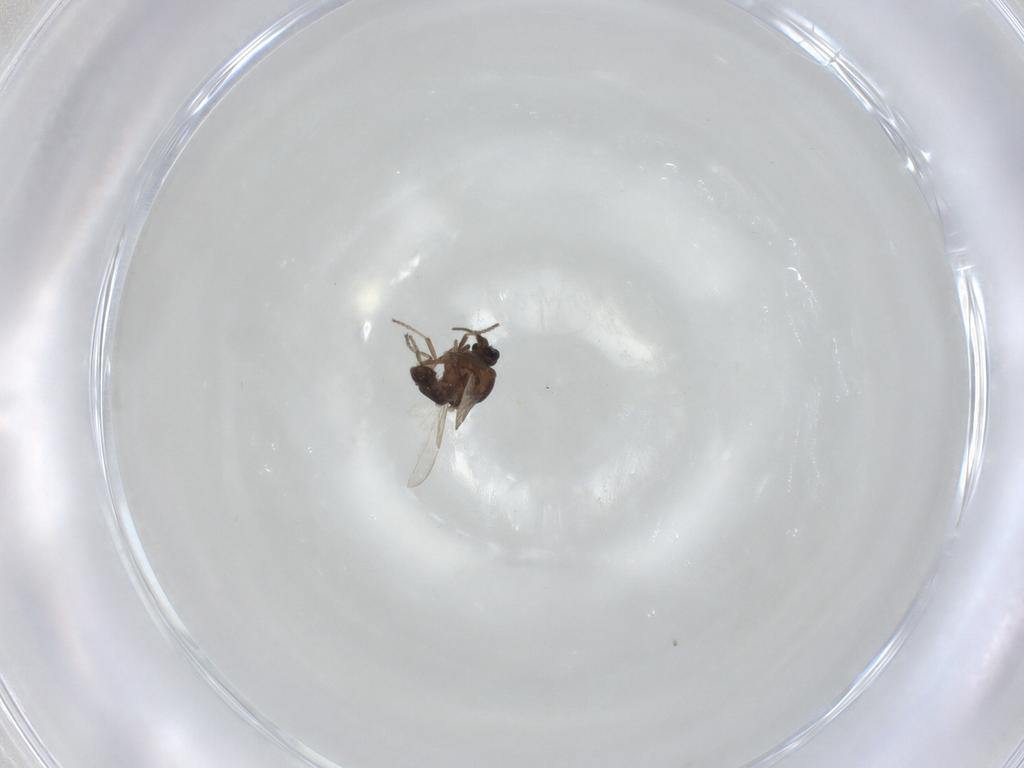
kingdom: Animalia
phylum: Arthropoda
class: Insecta
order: Diptera
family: Ceratopogonidae
